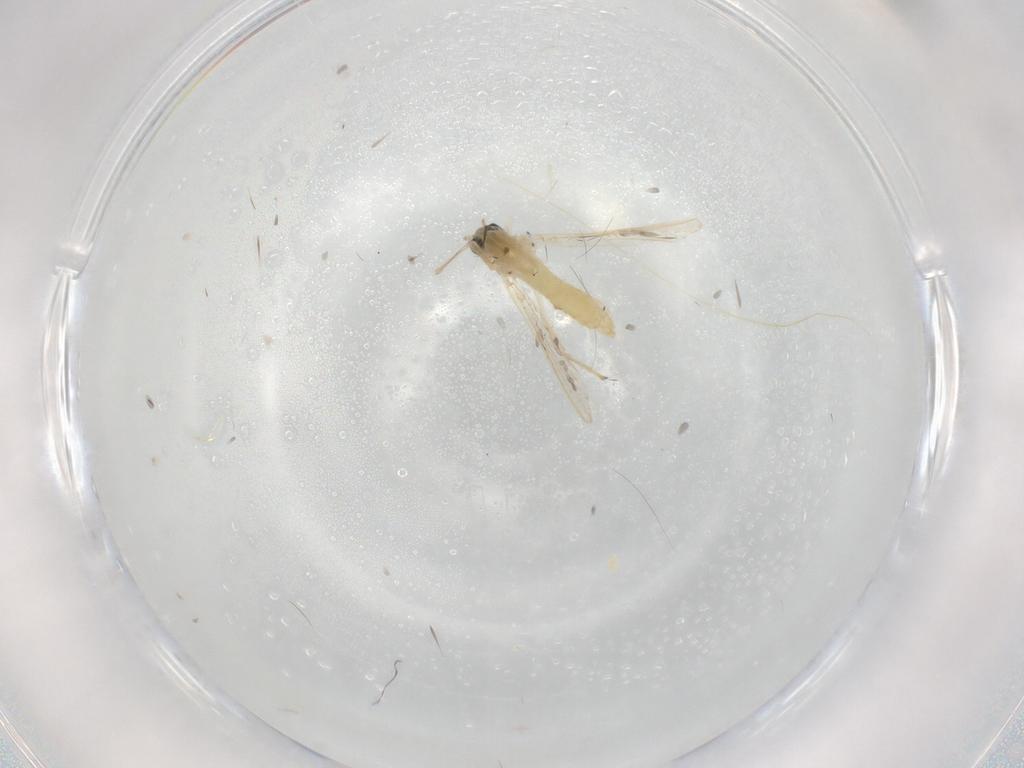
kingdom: Animalia
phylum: Arthropoda
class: Insecta
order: Diptera
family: Chironomidae
